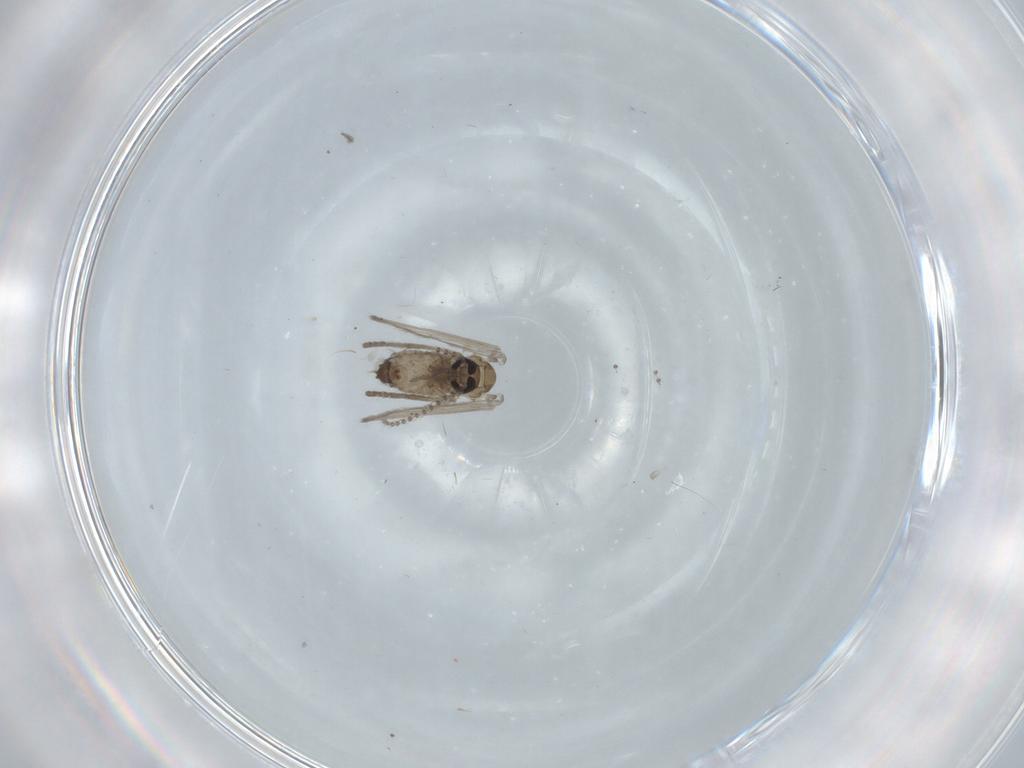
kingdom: Animalia
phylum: Arthropoda
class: Insecta
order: Diptera
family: Psychodidae
